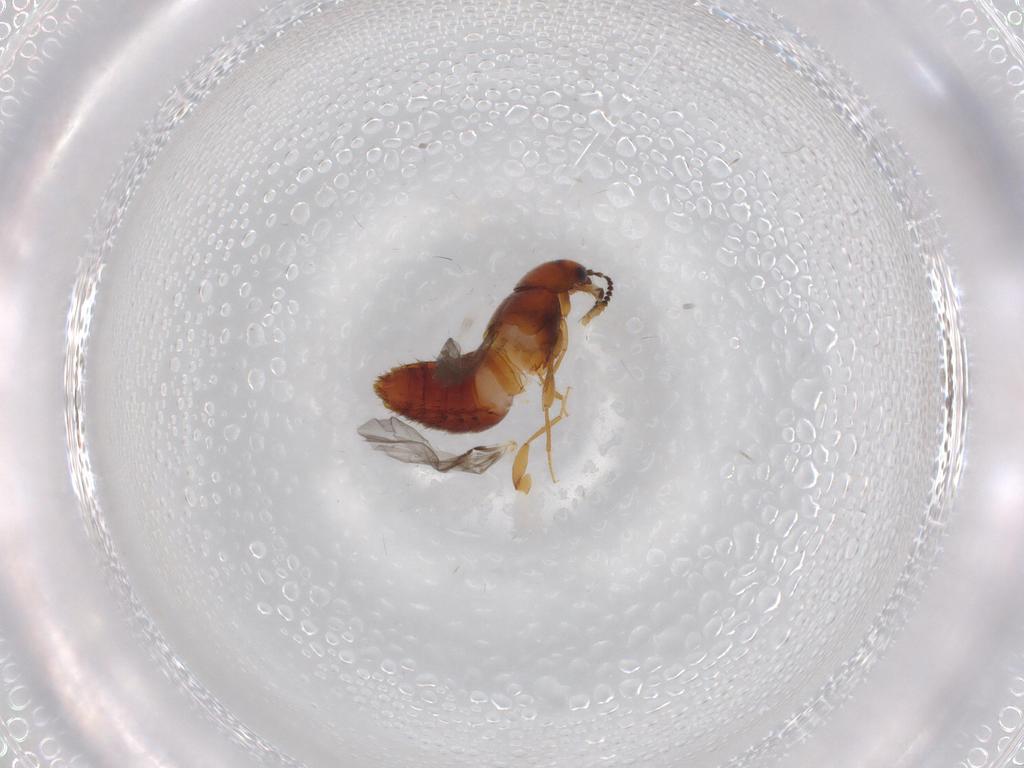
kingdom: Animalia
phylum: Arthropoda
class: Insecta
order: Coleoptera
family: Staphylinidae
